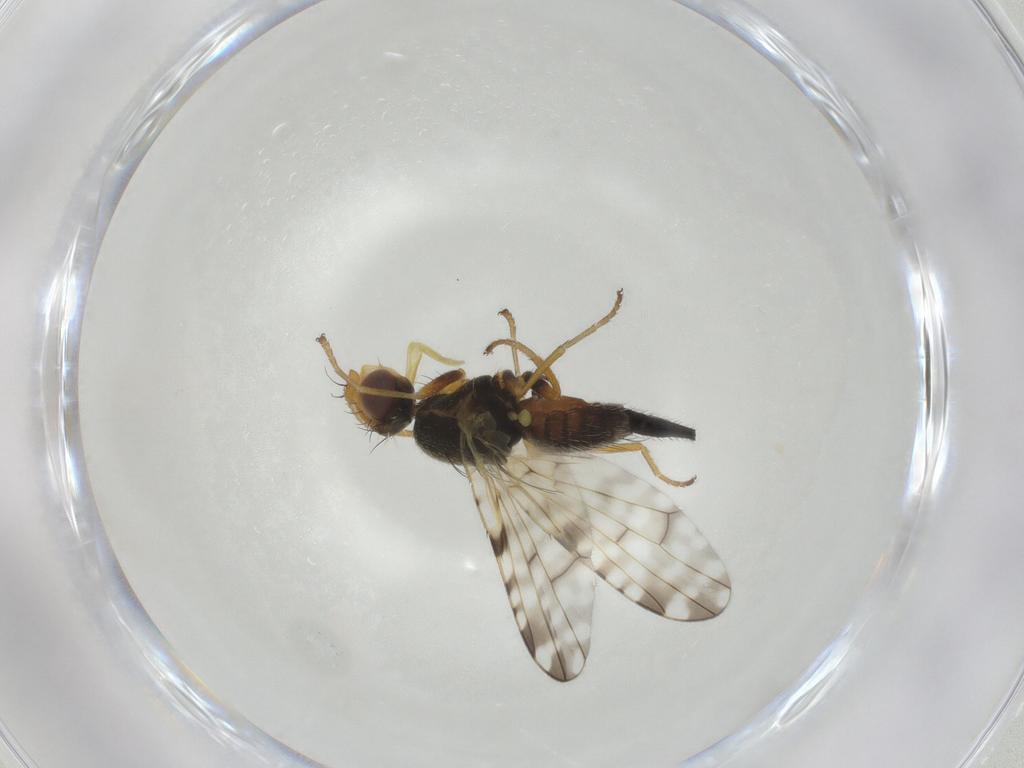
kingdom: Animalia
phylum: Arthropoda
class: Insecta
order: Diptera
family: Tephritidae
